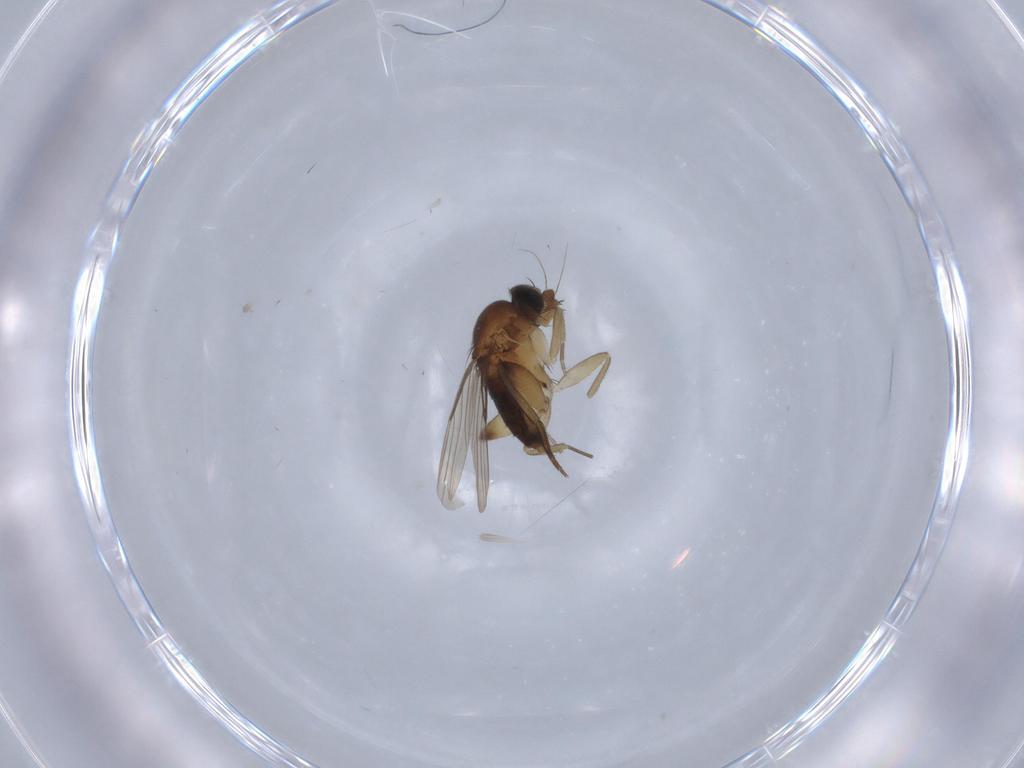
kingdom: Animalia
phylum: Arthropoda
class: Insecta
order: Diptera
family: Phoridae
